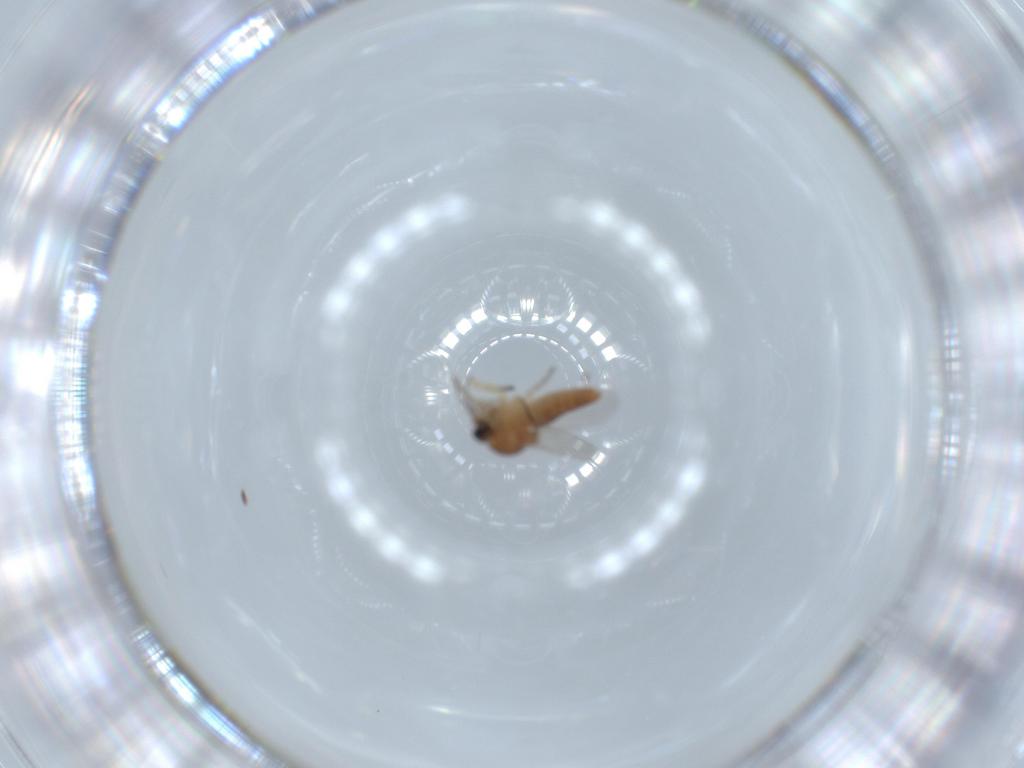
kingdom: Animalia
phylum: Arthropoda
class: Insecta
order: Diptera
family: Ceratopogonidae
